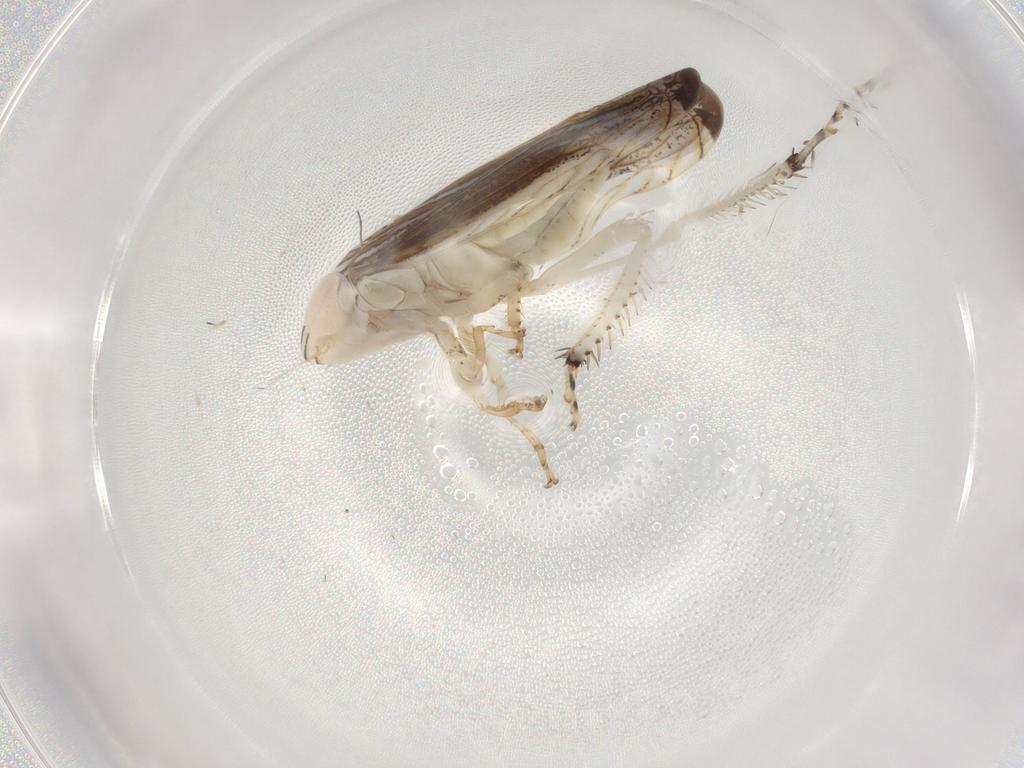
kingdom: Animalia
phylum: Arthropoda
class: Insecta
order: Hemiptera
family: Cicadellidae
